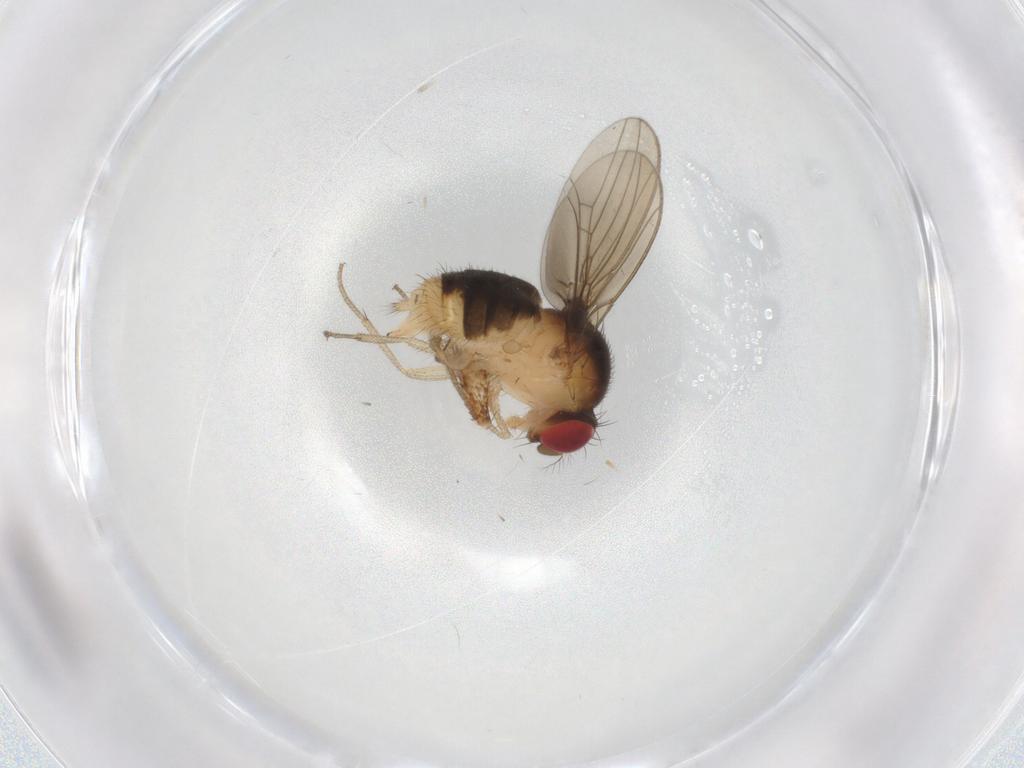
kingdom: Animalia
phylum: Arthropoda
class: Insecta
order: Diptera
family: Drosophilidae
